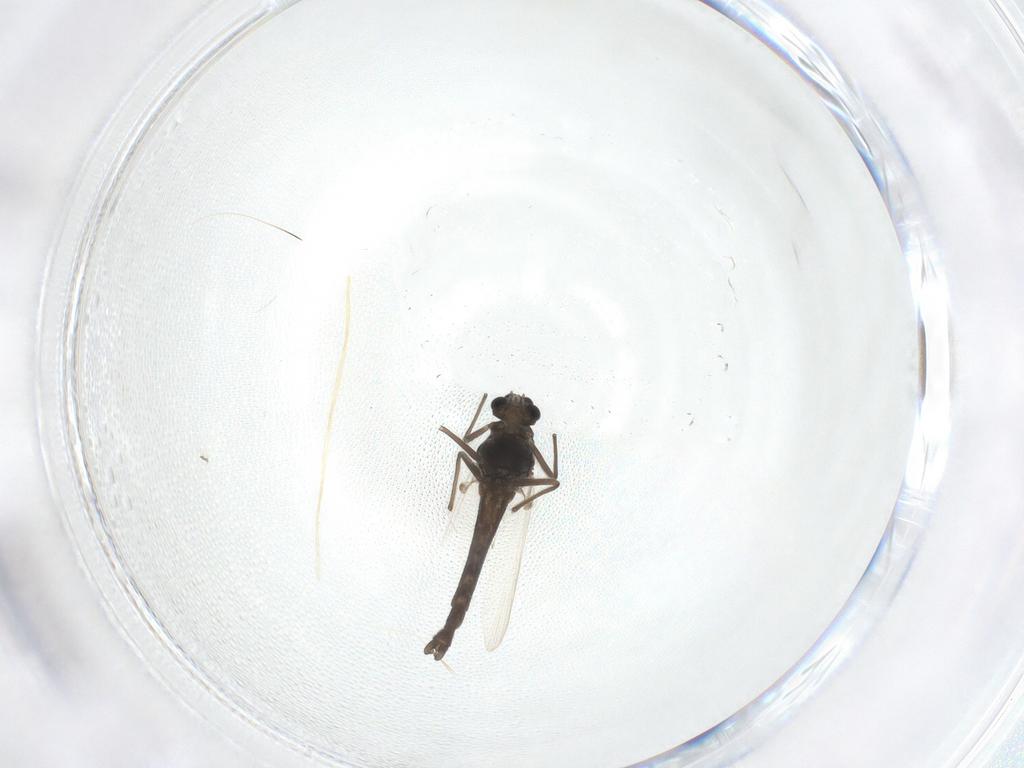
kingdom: Animalia
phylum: Arthropoda
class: Insecta
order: Diptera
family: Chironomidae
